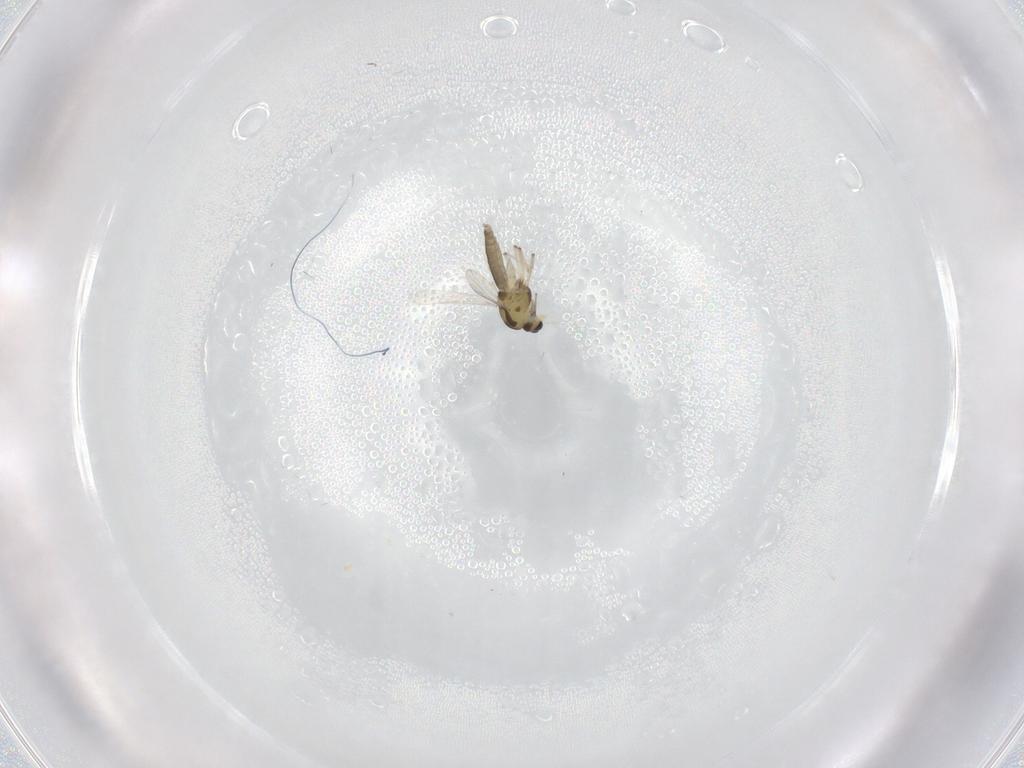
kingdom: Animalia
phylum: Arthropoda
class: Insecta
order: Diptera
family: Chironomidae
